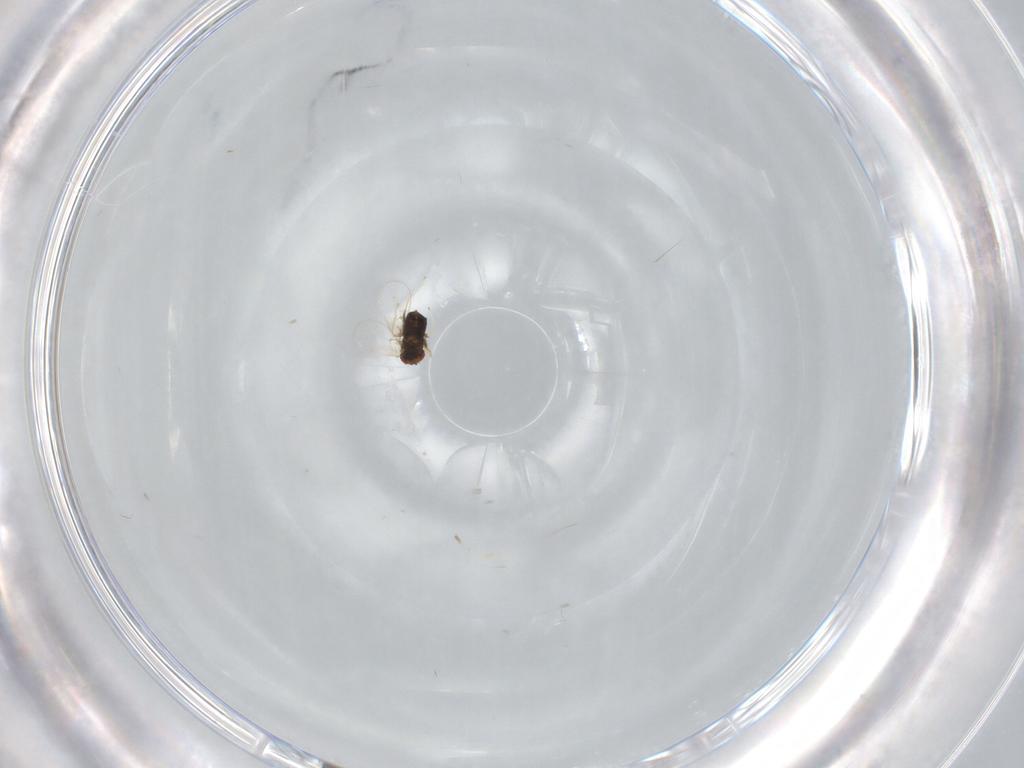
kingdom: Animalia
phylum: Arthropoda
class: Insecta
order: Hymenoptera
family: Trichogrammatidae
